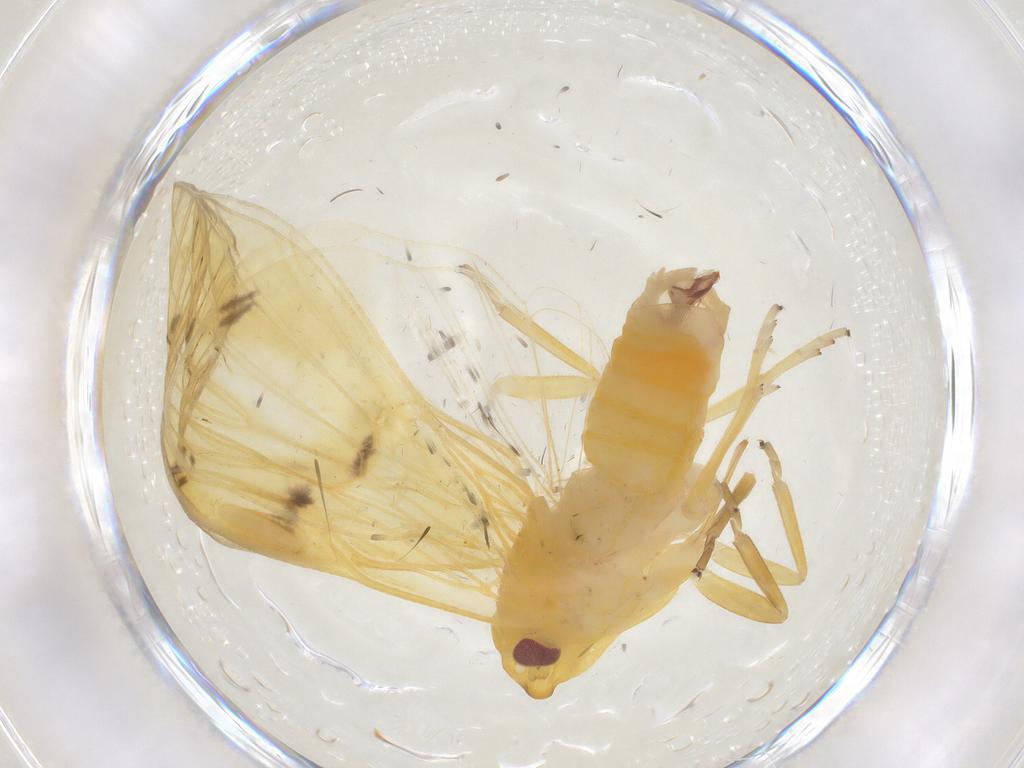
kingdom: Animalia
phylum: Arthropoda
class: Insecta
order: Hemiptera
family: Cixiidae
